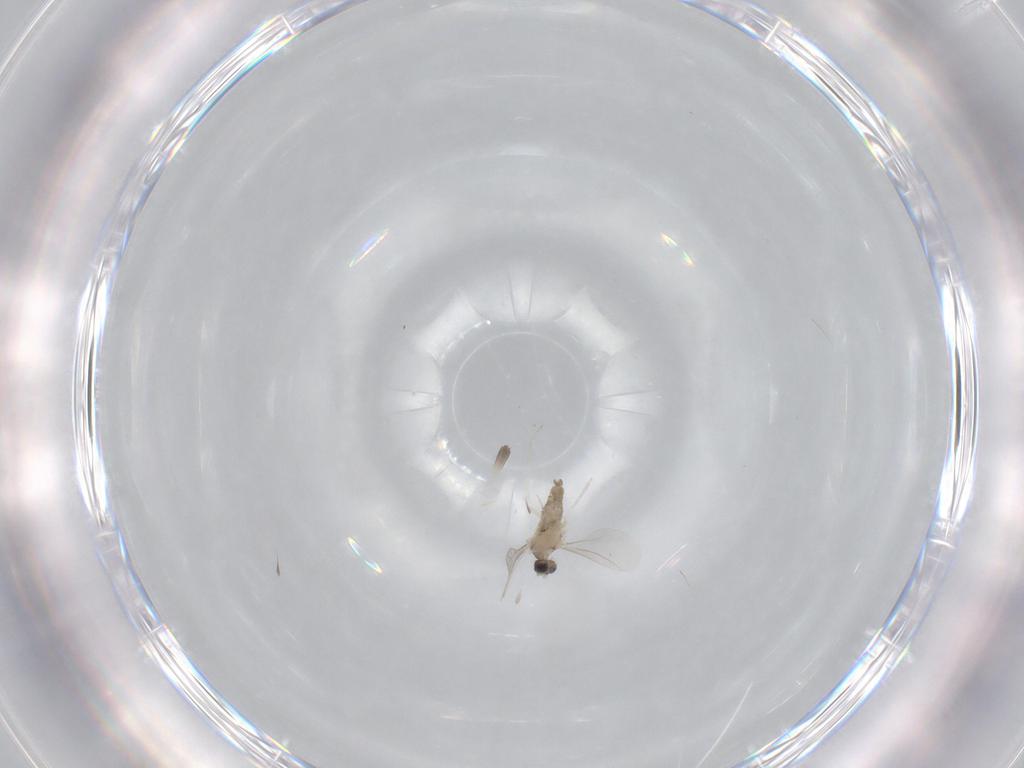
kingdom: Animalia
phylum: Arthropoda
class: Insecta
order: Diptera
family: Cecidomyiidae
